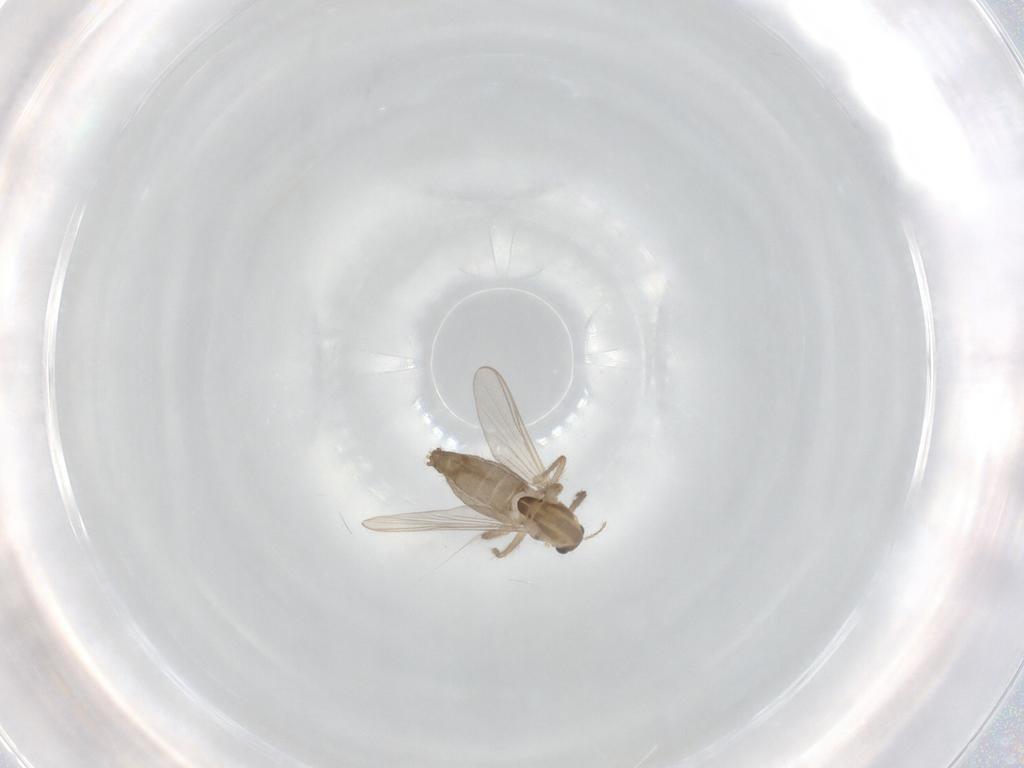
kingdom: Animalia
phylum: Arthropoda
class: Insecta
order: Diptera
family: Chironomidae
